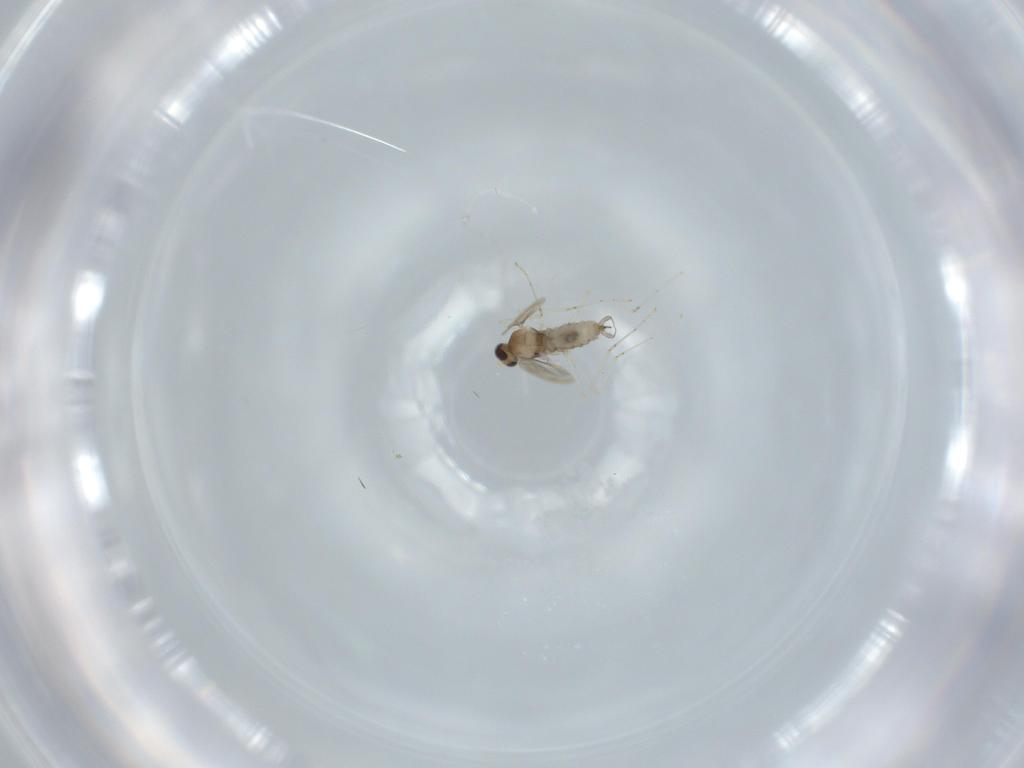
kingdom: Animalia
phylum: Arthropoda
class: Insecta
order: Diptera
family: Cecidomyiidae
